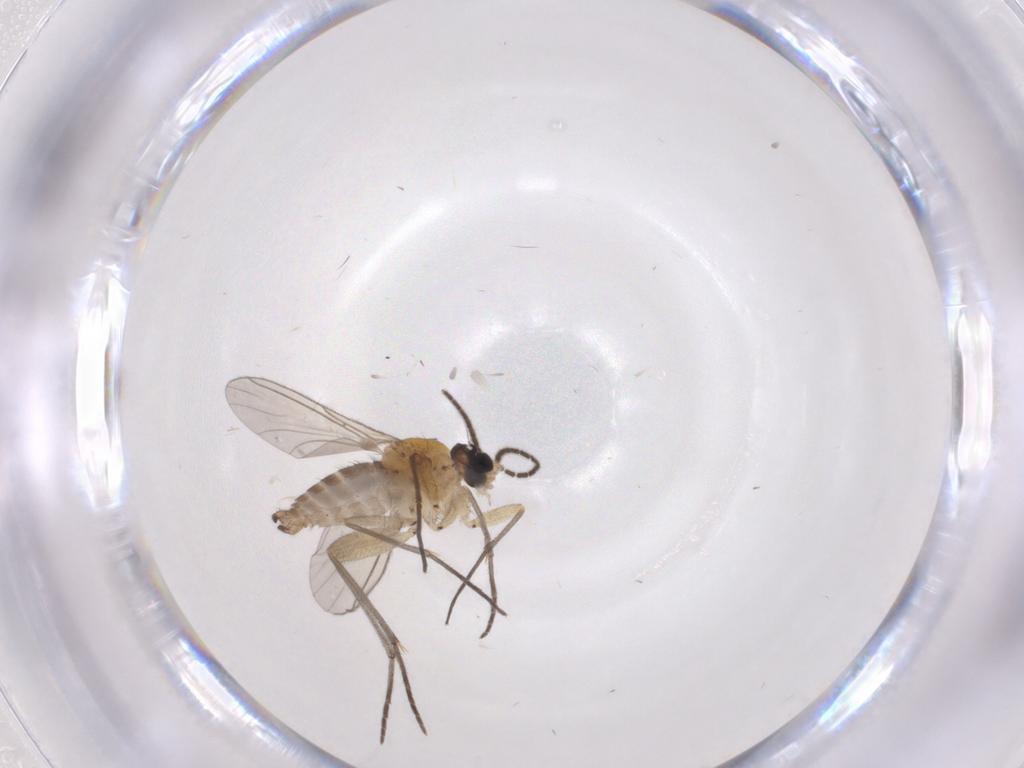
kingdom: Animalia
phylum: Arthropoda
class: Insecta
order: Diptera
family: Sciaridae
